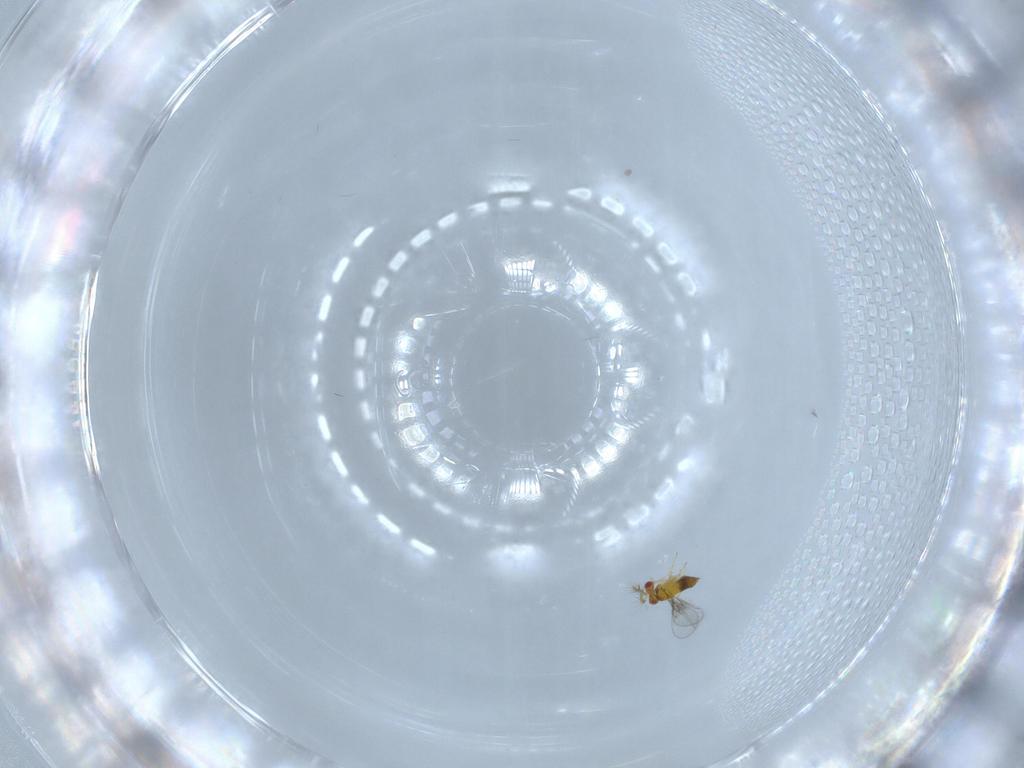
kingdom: Animalia
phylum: Arthropoda
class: Insecta
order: Hymenoptera
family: Trichogrammatidae
